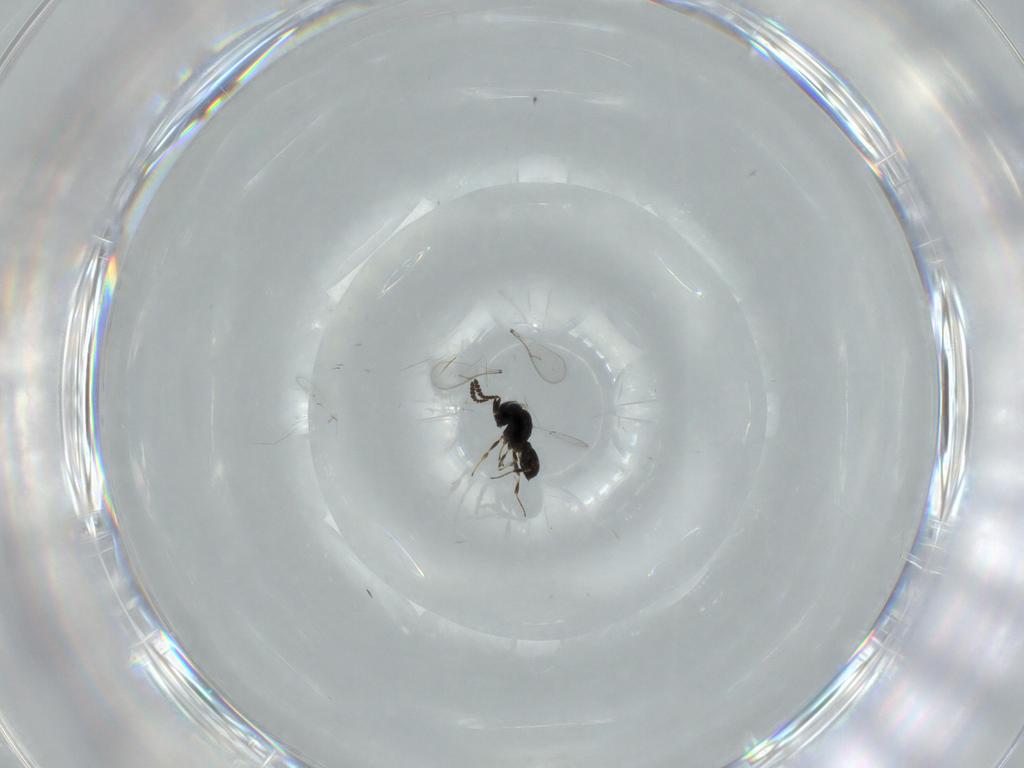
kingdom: Animalia
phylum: Arthropoda
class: Insecta
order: Hymenoptera
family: Scelionidae
